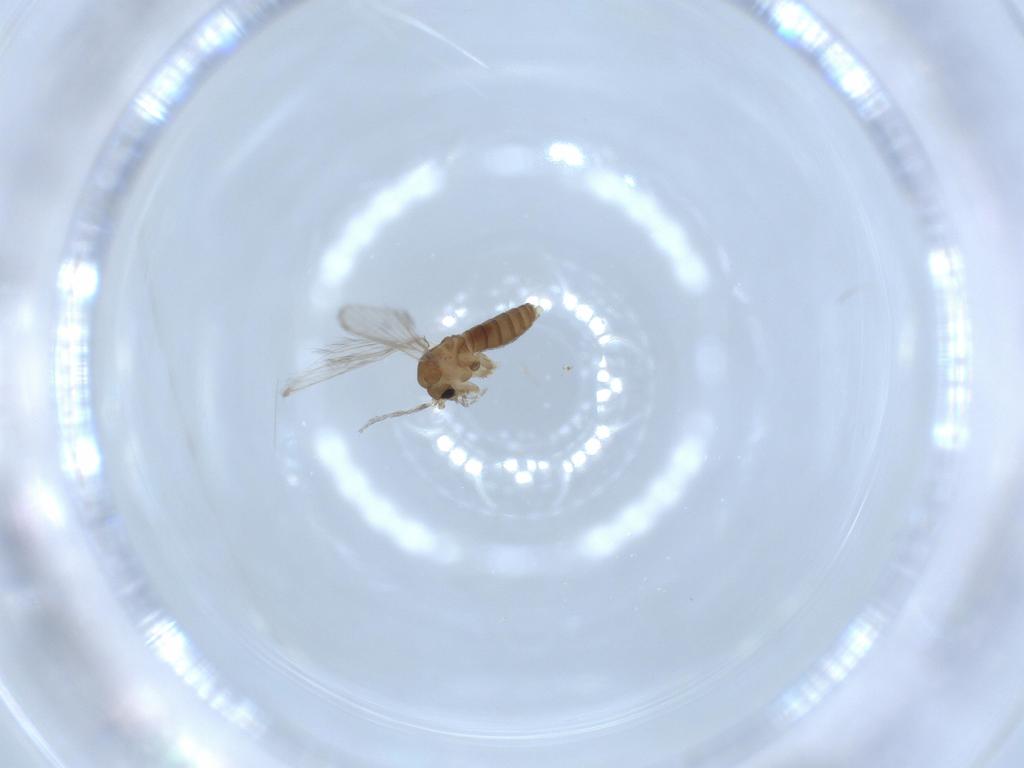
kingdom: Animalia
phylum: Arthropoda
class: Insecta
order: Diptera
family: Psychodidae
